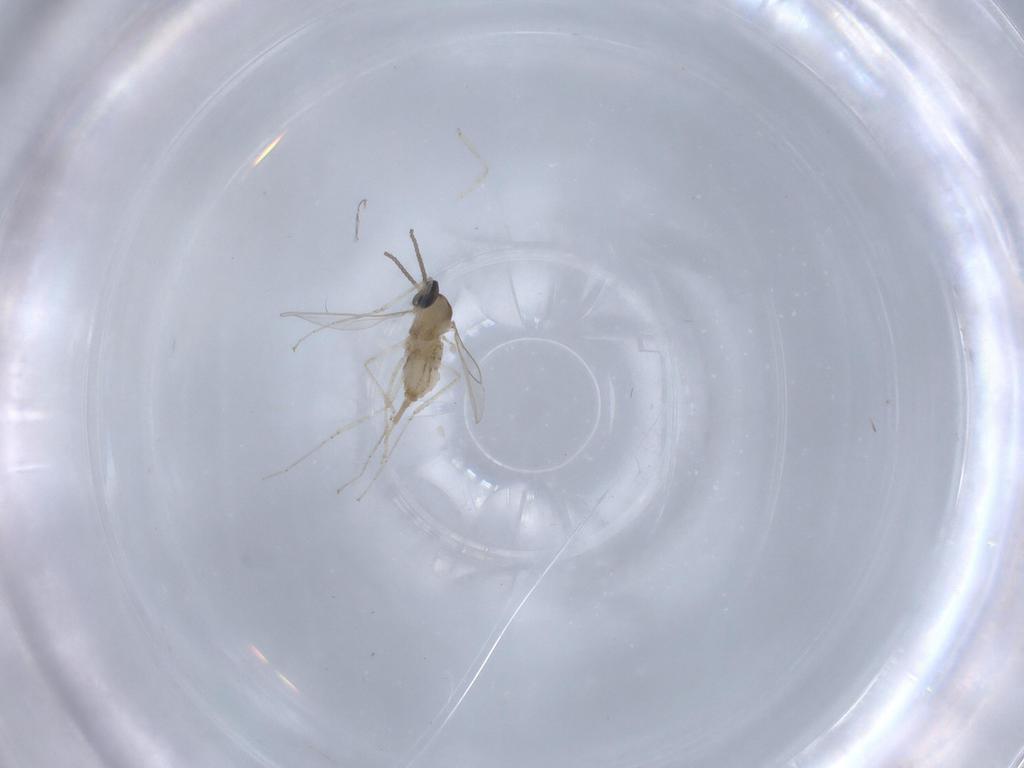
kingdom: Animalia
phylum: Arthropoda
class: Insecta
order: Diptera
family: Cecidomyiidae
